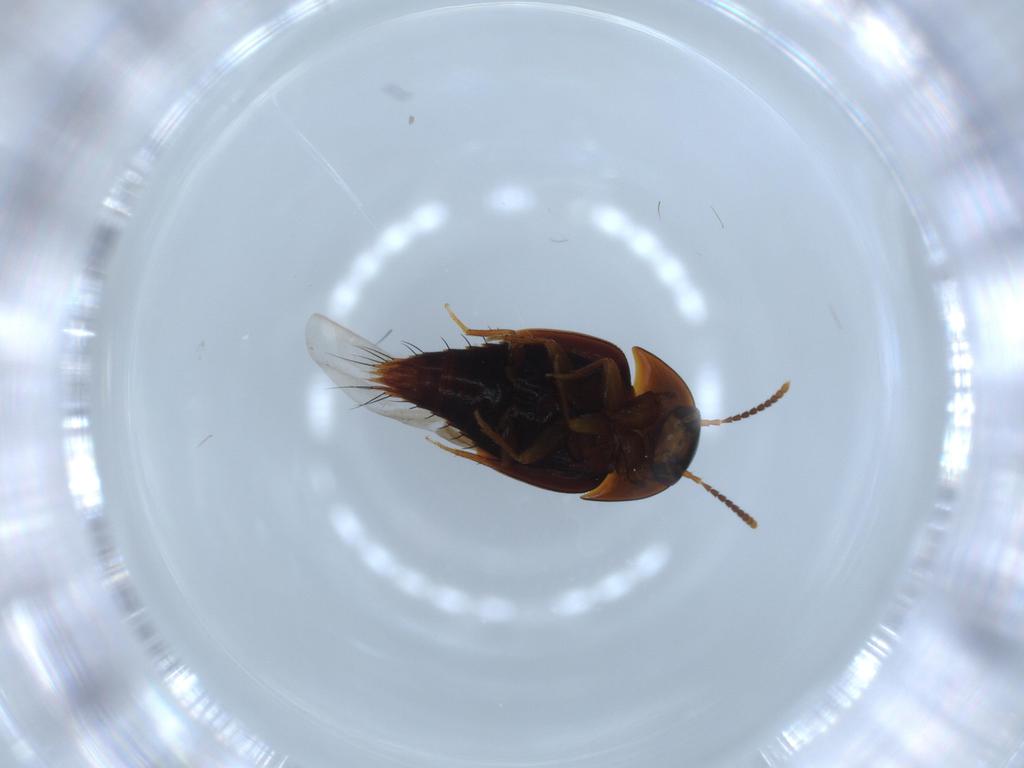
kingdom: Animalia
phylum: Arthropoda
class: Insecta
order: Coleoptera
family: Staphylinidae
